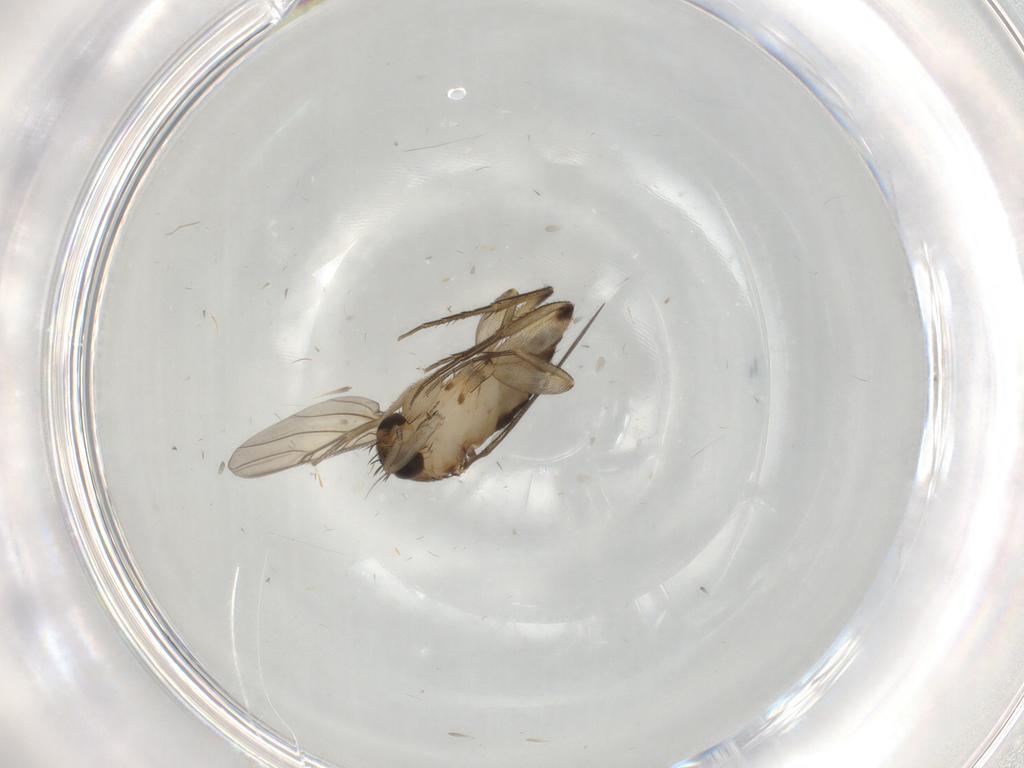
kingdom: Animalia
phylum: Arthropoda
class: Insecta
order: Diptera
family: Phoridae
